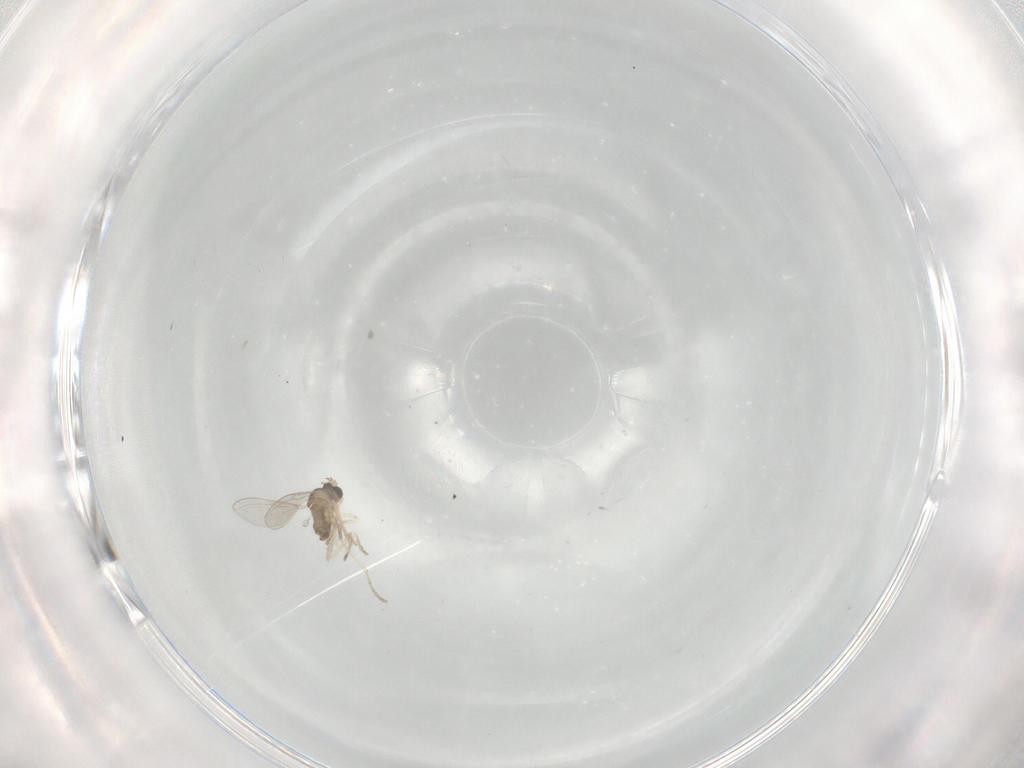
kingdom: Animalia
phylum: Arthropoda
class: Insecta
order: Diptera
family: Cecidomyiidae
